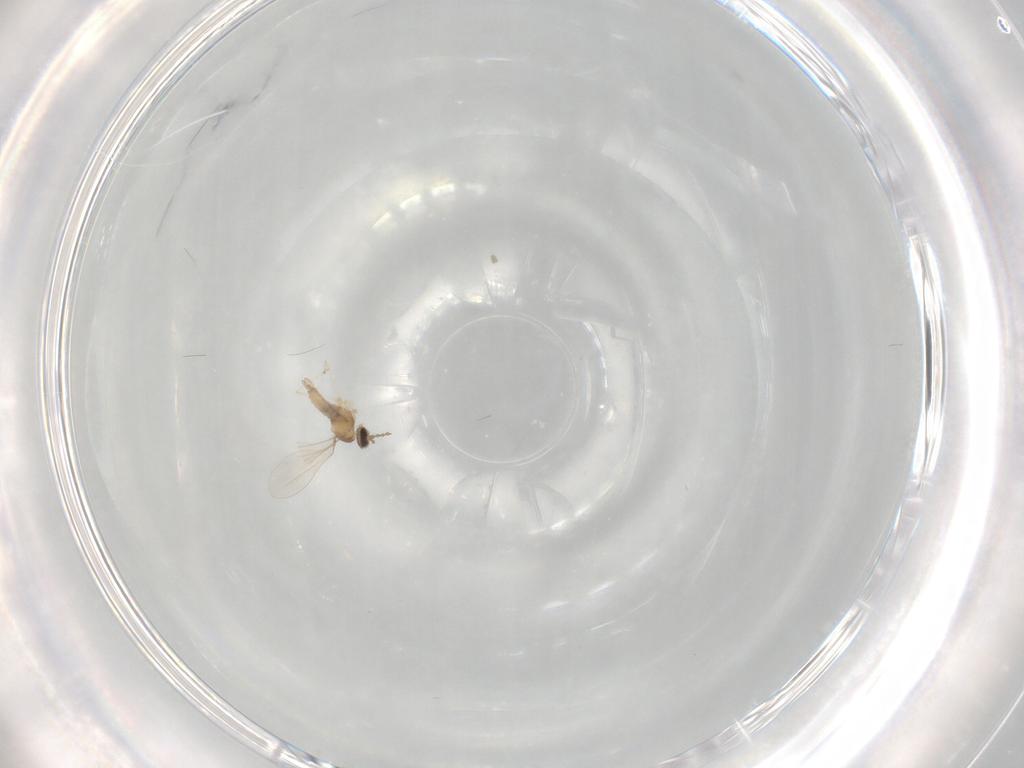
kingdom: Animalia
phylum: Arthropoda
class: Insecta
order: Diptera
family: Cecidomyiidae
